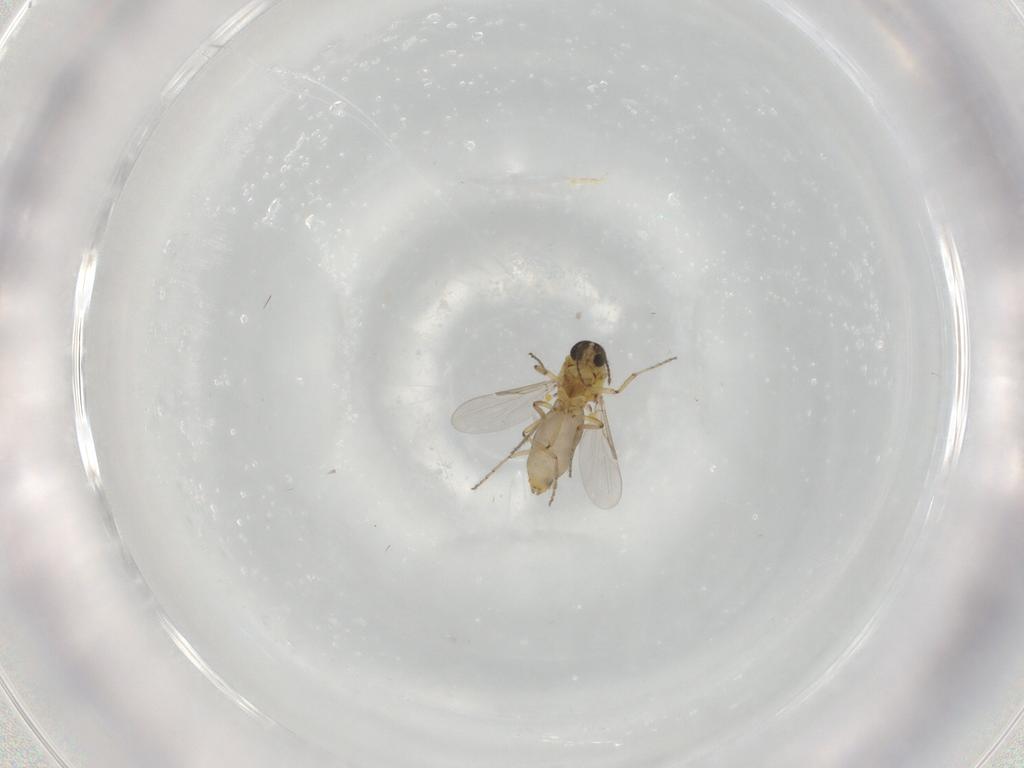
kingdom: Animalia
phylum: Arthropoda
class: Insecta
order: Diptera
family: Ceratopogonidae
